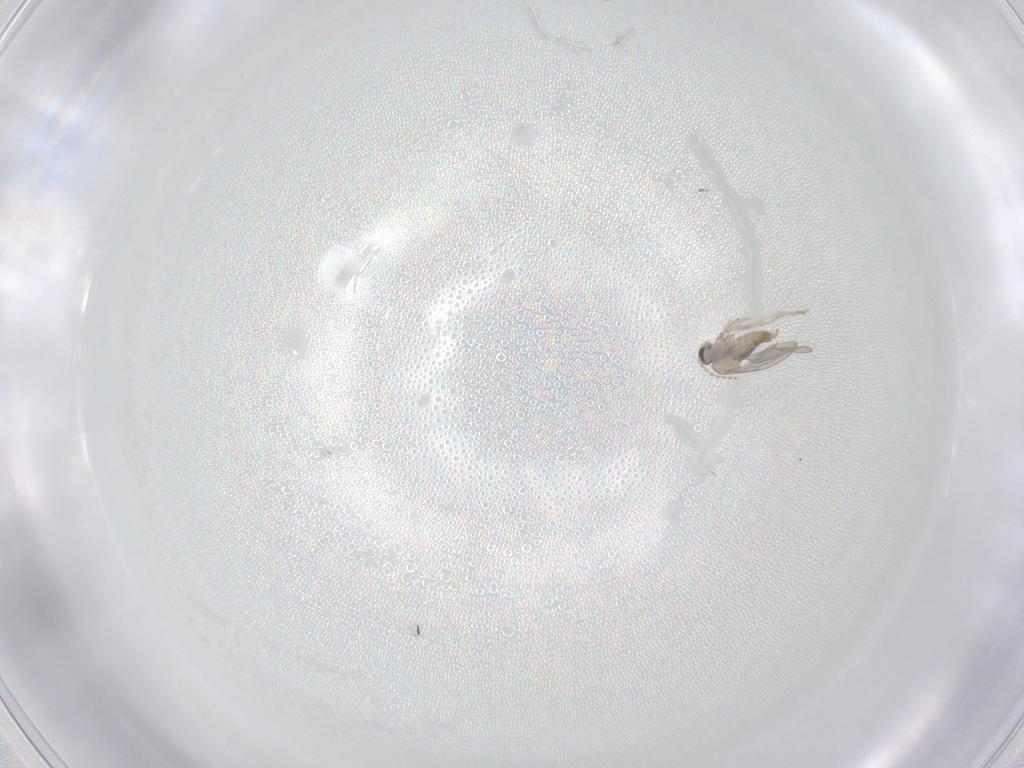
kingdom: Animalia
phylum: Arthropoda
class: Insecta
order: Diptera
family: Cecidomyiidae
